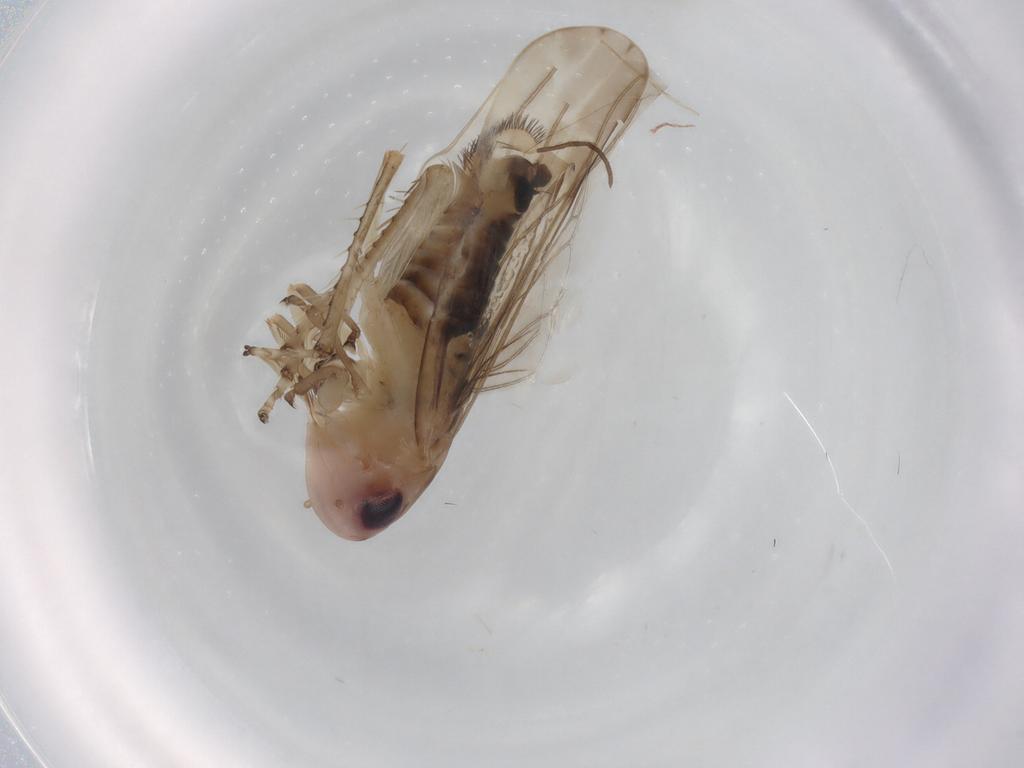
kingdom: Animalia
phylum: Arthropoda
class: Insecta
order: Hemiptera
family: Cicadellidae
